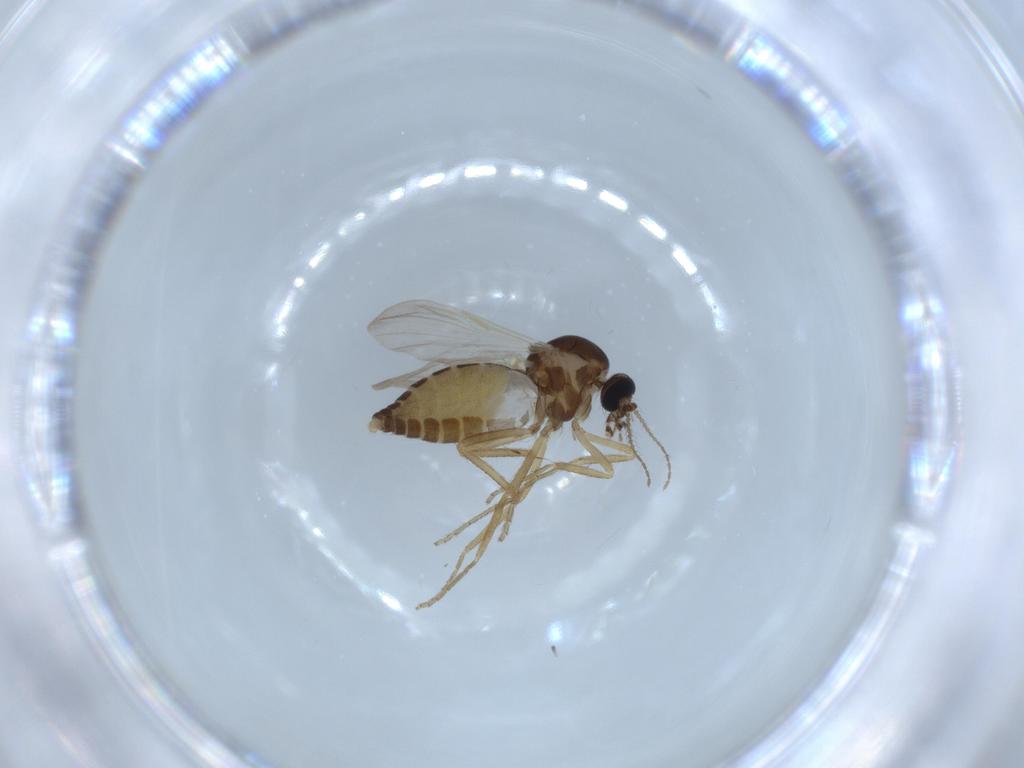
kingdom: Animalia
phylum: Arthropoda
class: Insecta
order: Diptera
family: Ceratopogonidae
